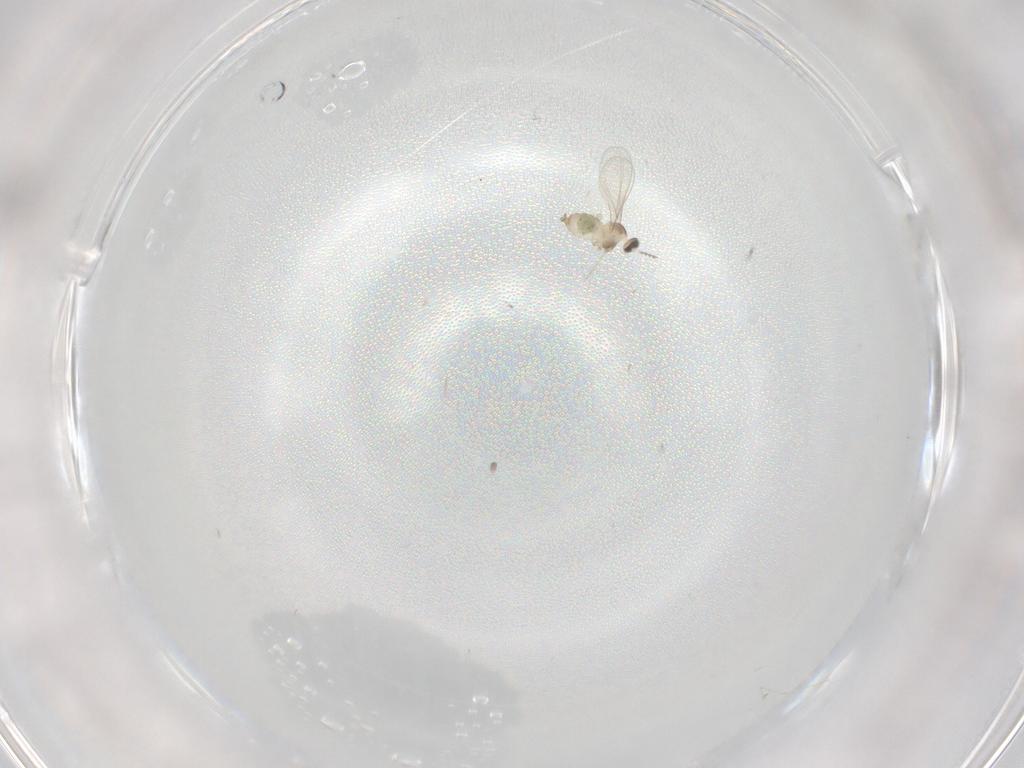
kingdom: Animalia
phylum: Arthropoda
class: Insecta
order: Diptera
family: Cecidomyiidae
